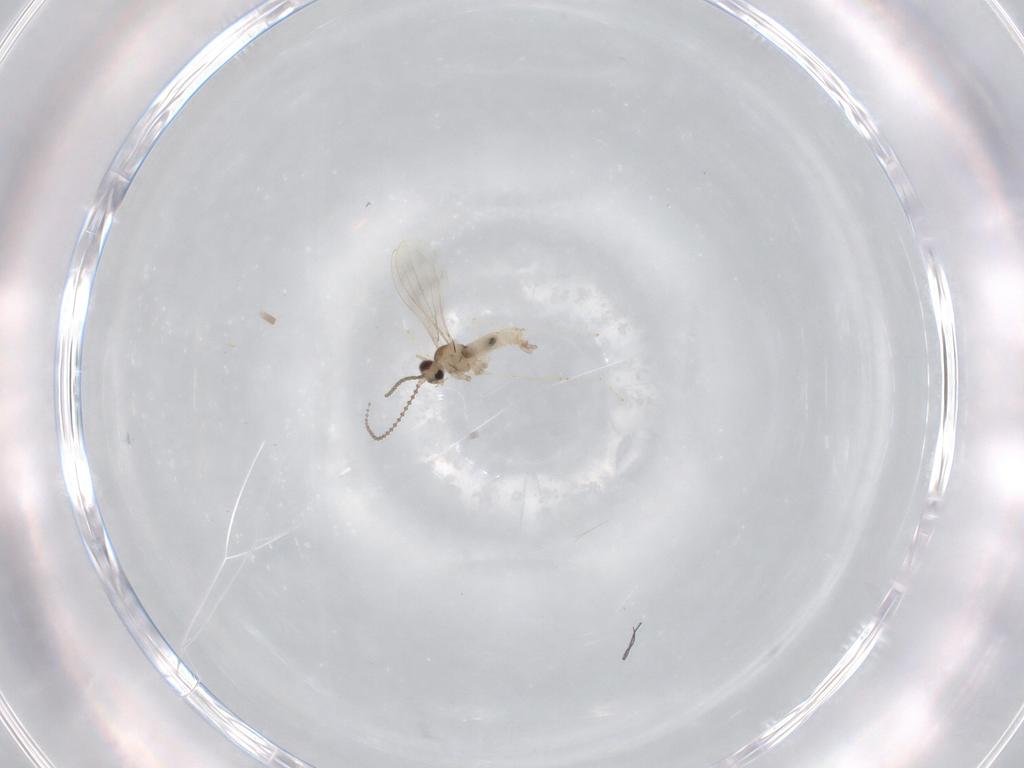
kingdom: Animalia
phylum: Arthropoda
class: Insecta
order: Diptera
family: Cecidomyiidae
